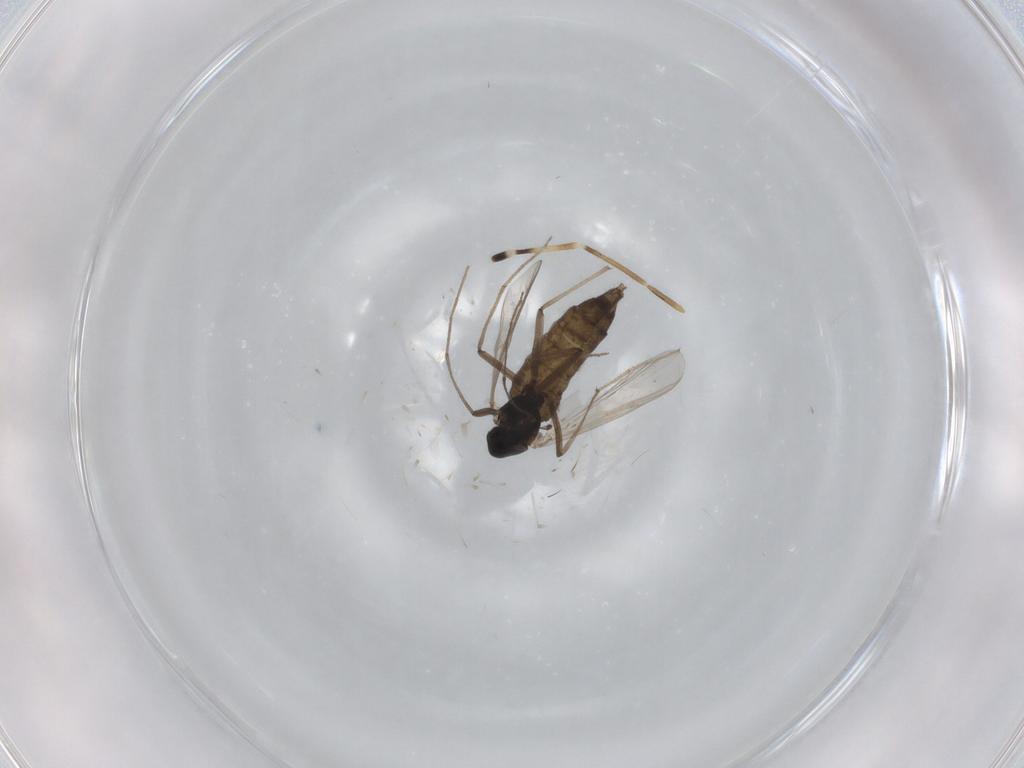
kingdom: Animalia
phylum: Arthropoda
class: Insecta
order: Diptera
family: Chironomidae
